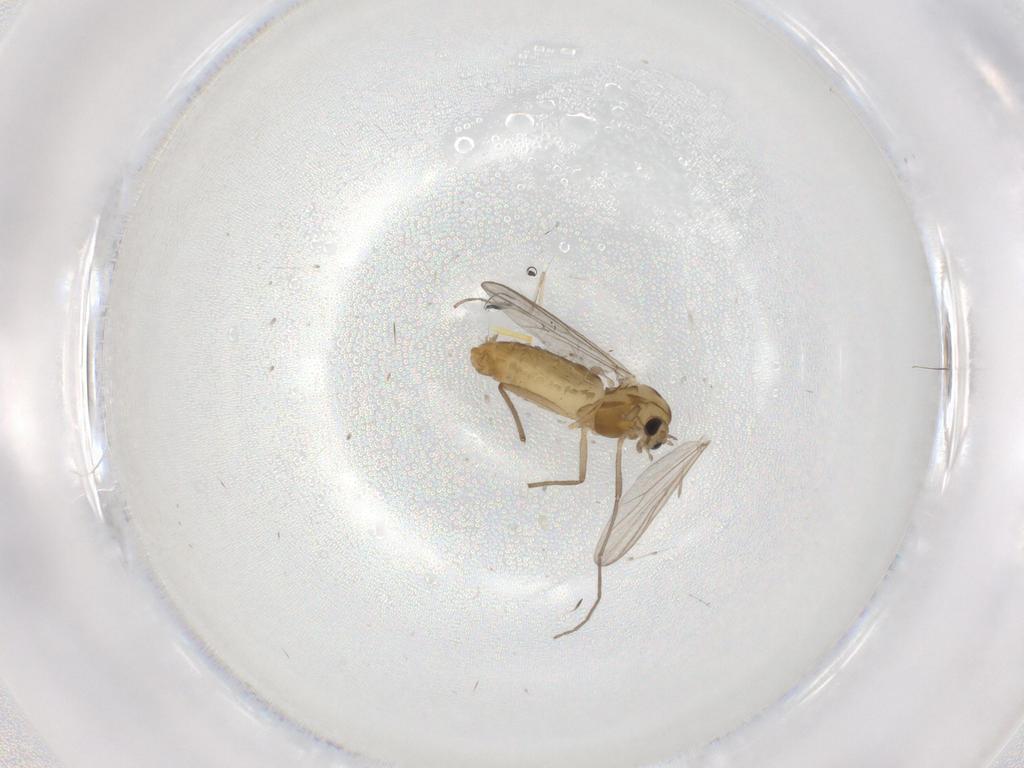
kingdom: Animalia
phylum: Arthropoda
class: Insecta
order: Diptera
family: Chironomidae
